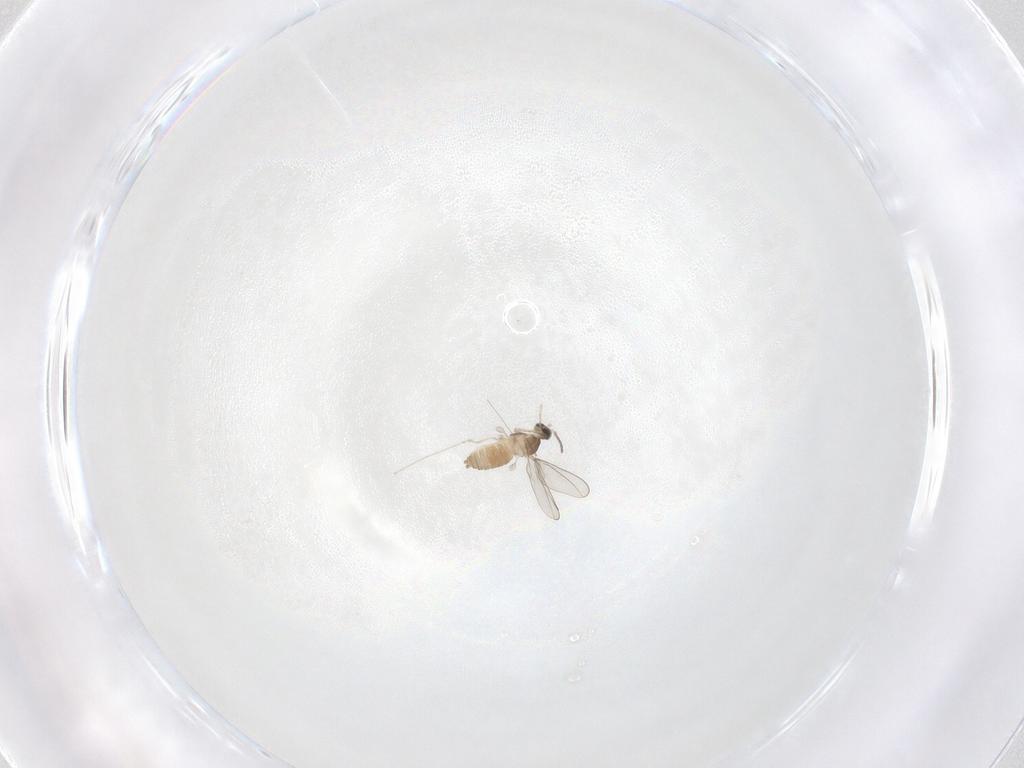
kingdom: Animalia
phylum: Arthropoda
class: Insecta
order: Diptera
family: Cecidomyiidae
